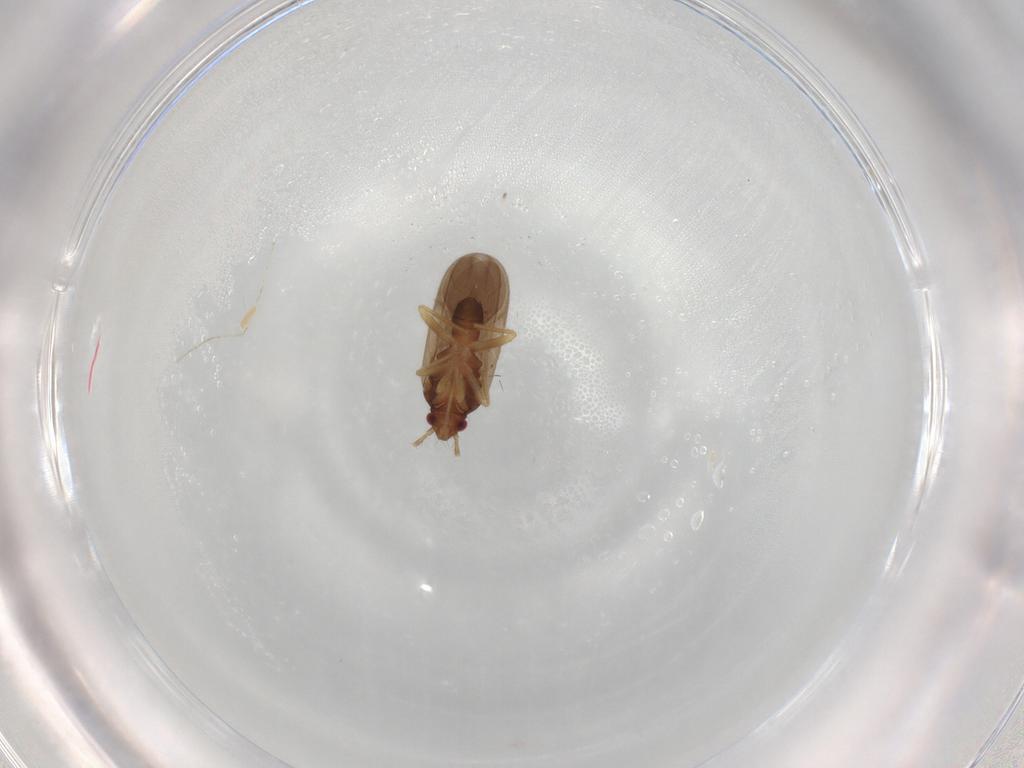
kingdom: Animalia
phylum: Arthropoda
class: Insecta
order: Hemiptera
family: Ceratocombidae
